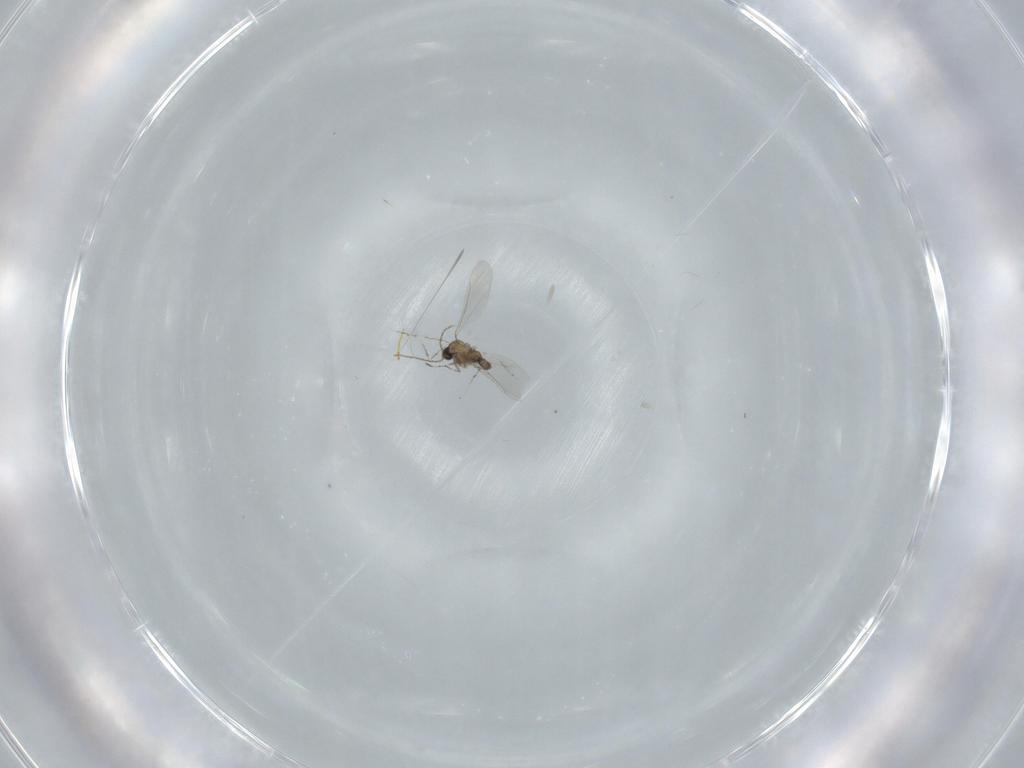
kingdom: Animalia
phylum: Arthropoda
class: Insecta
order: Diptera
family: Cecidomyiidae
